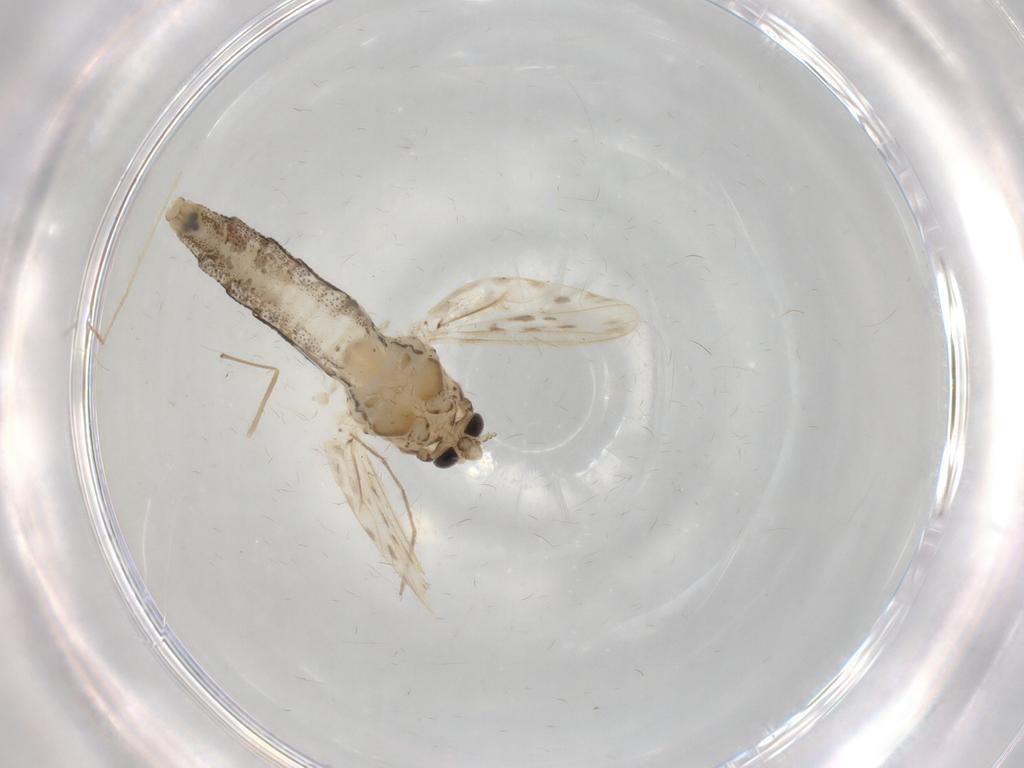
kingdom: Animalia
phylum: Arthropoda
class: Insecta
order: Diptera
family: Chaoboridae
